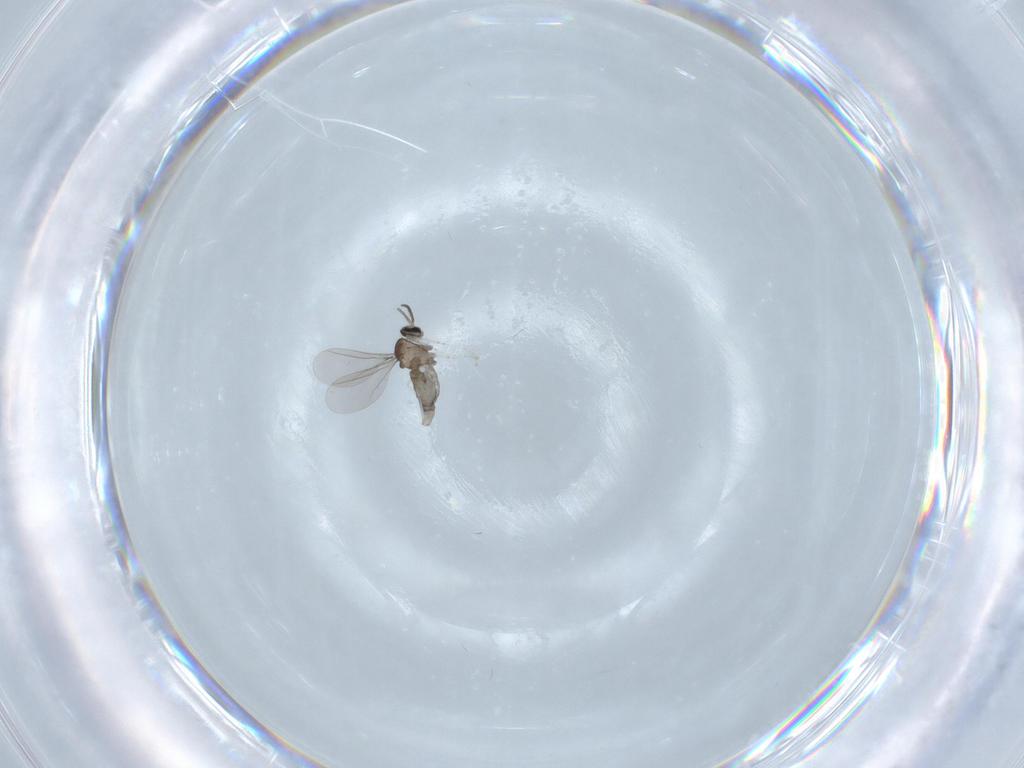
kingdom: Animalia
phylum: Arthropoda
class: Insecta
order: Diptera
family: Cecidomyiidae
